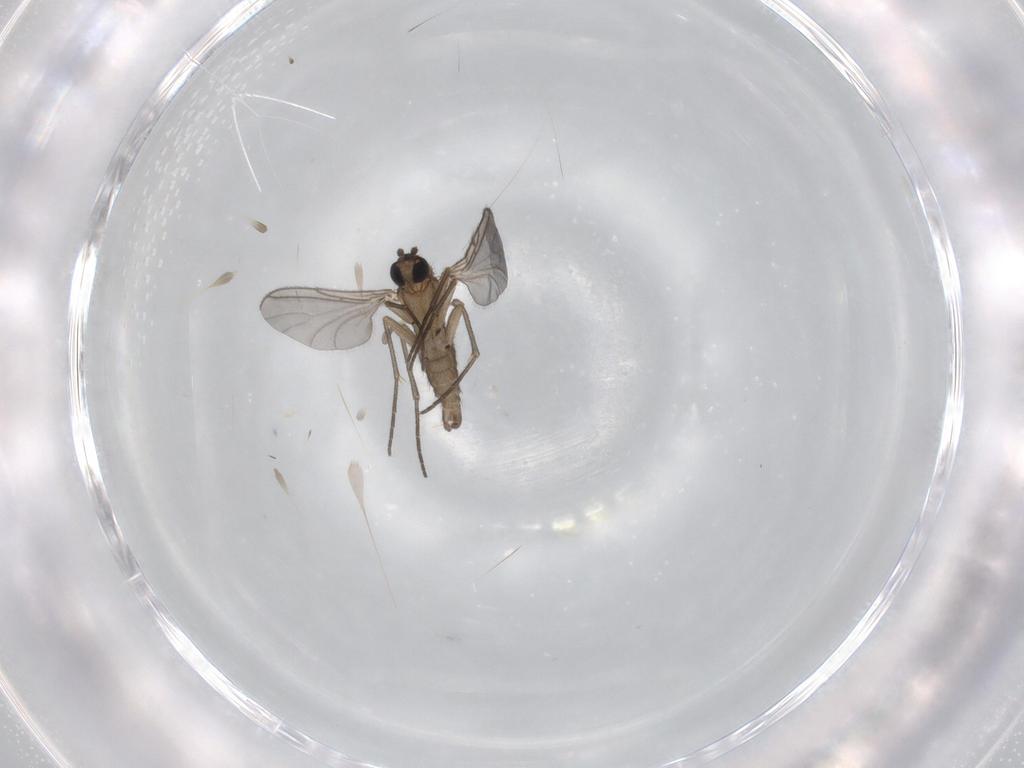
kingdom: Animalia
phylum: Arthropoda
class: Insecta
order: Diptera
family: Sciaridae
